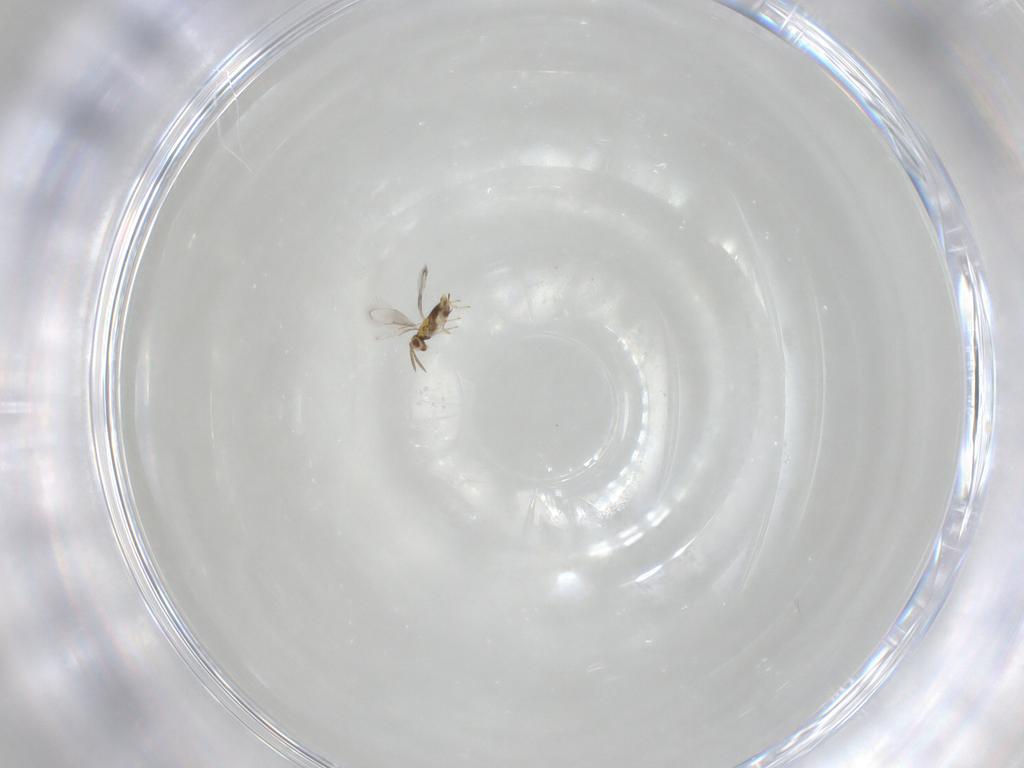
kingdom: Animalia
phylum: Arthropoda
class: Insecta
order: Hymenoptera
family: Aphelinidae
